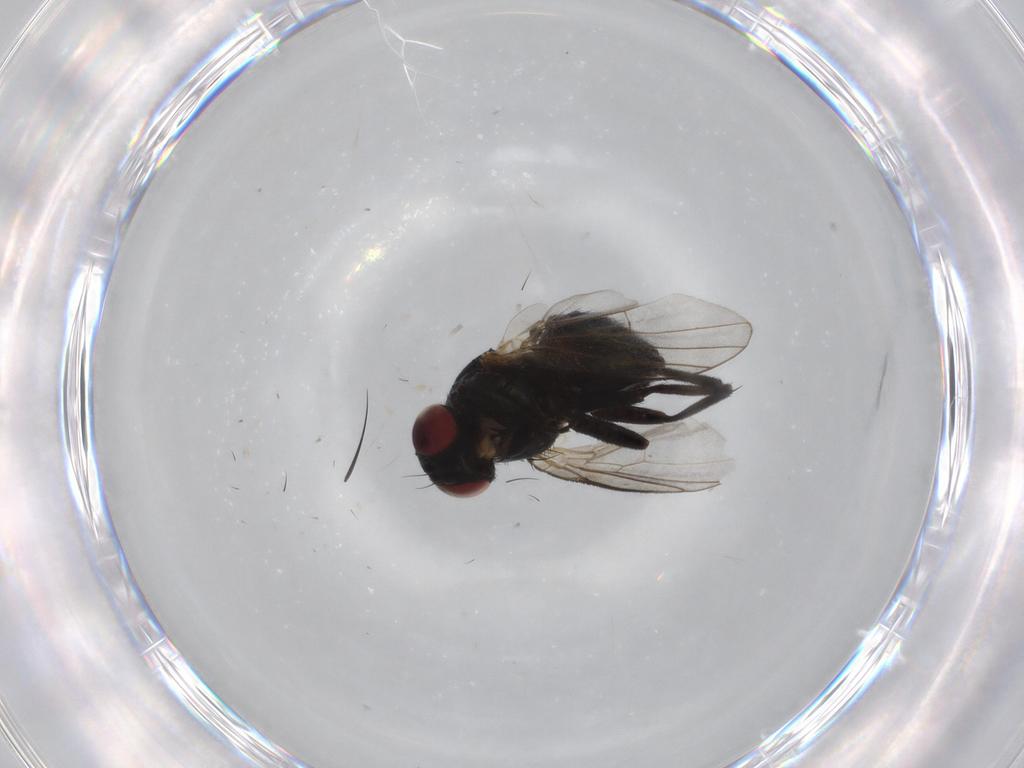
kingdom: Animalia
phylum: Arthropoda
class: Insecta
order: Diptera
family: Agromyzidae
